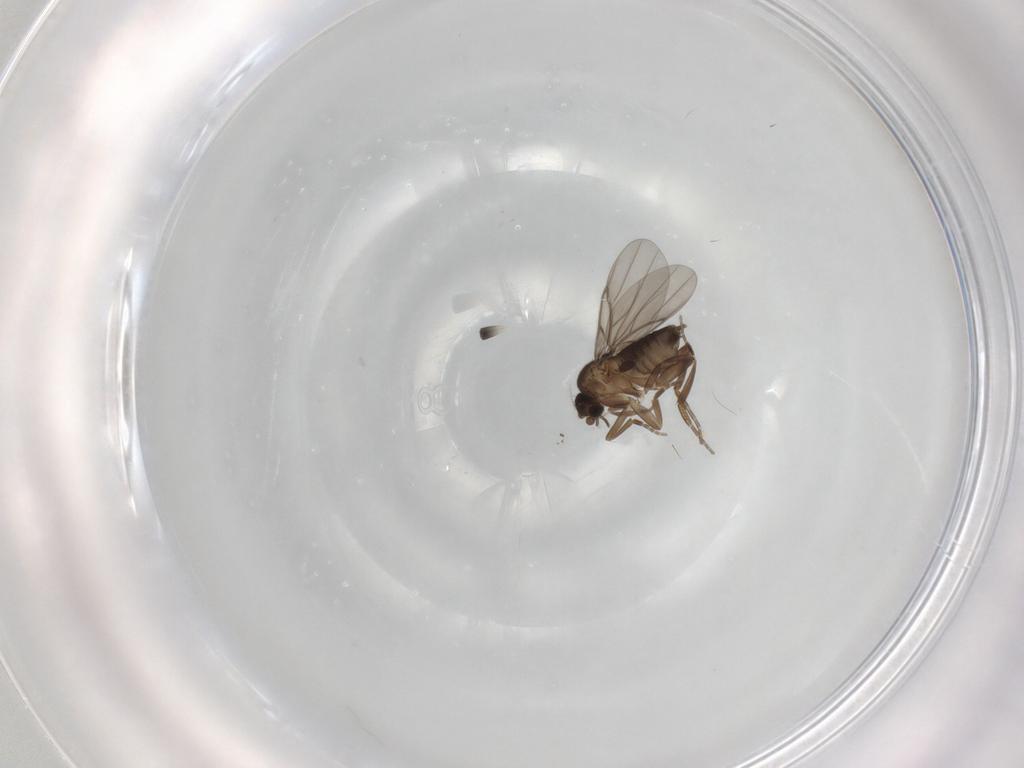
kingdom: Animalia
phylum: Arthropoda
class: Insecta
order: Diptera
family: Phoridae
